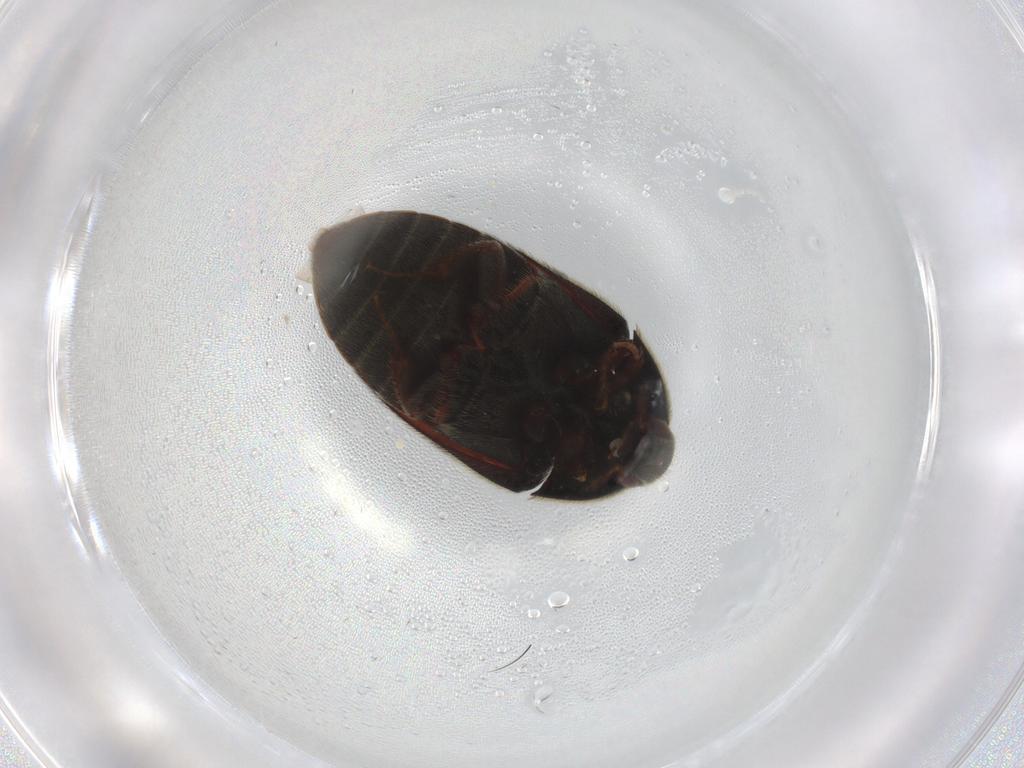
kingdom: Animalia
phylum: Arthropoda
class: Insecta
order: Coleoptera
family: Dermestidae
